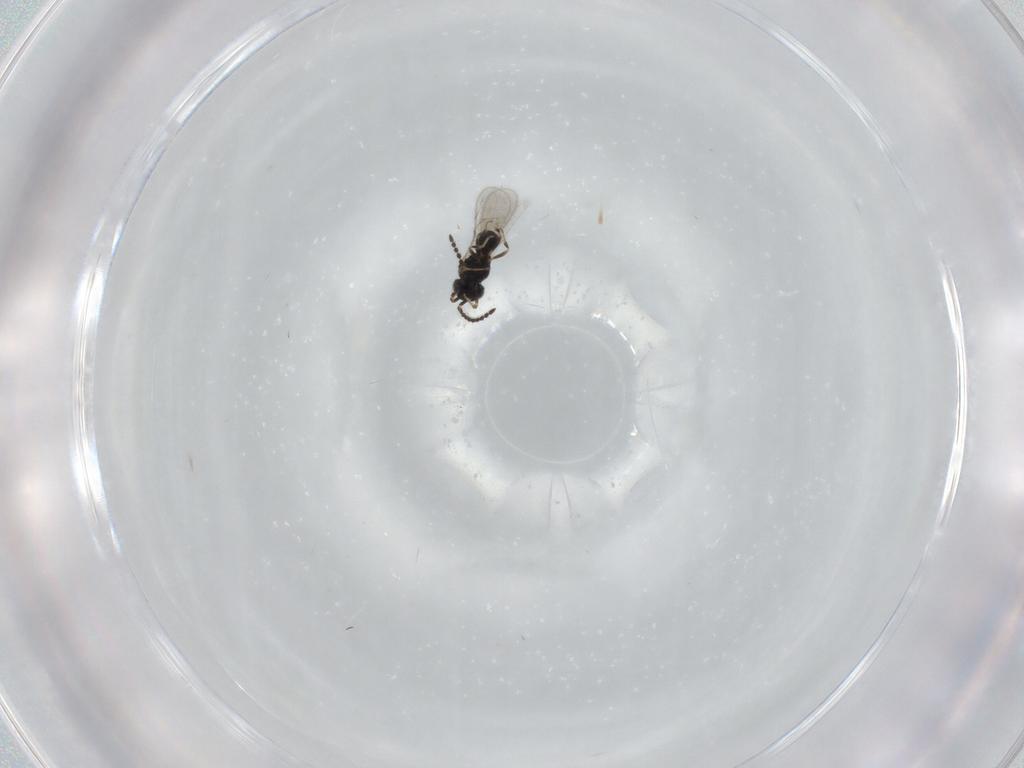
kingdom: Animalia
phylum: Arthropoda
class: Insecta
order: Hymenoptera
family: Scelionidae
